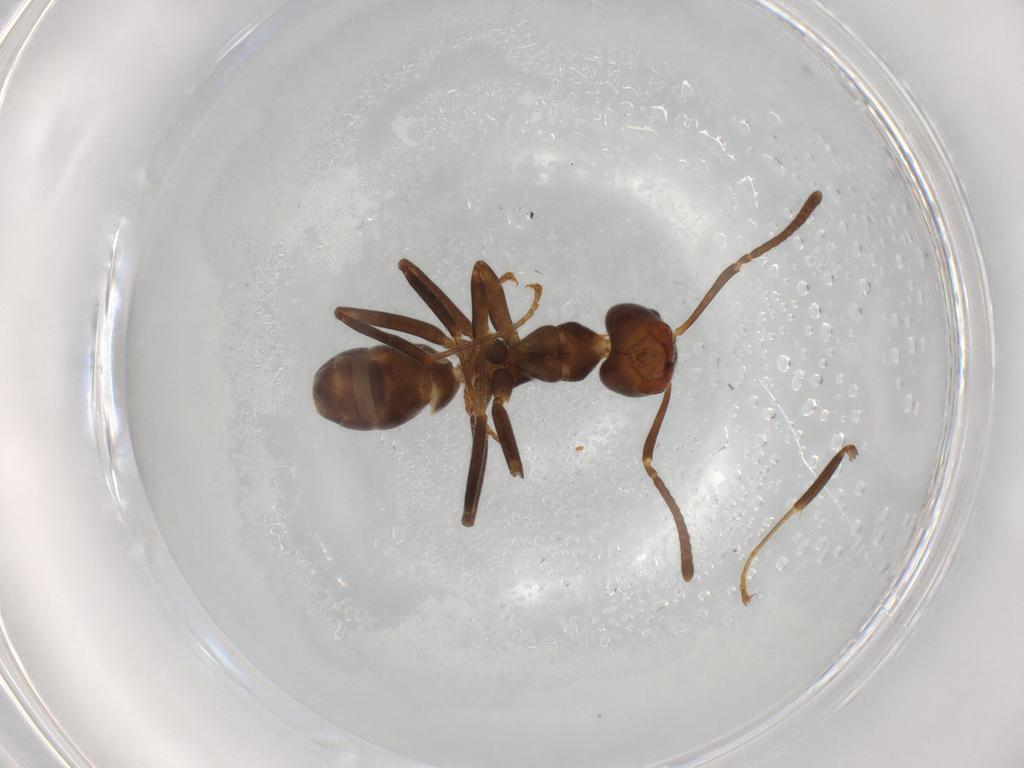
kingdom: Animalia
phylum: Arthropoda
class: Insecta
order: Hymenoptera
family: Formicidae
